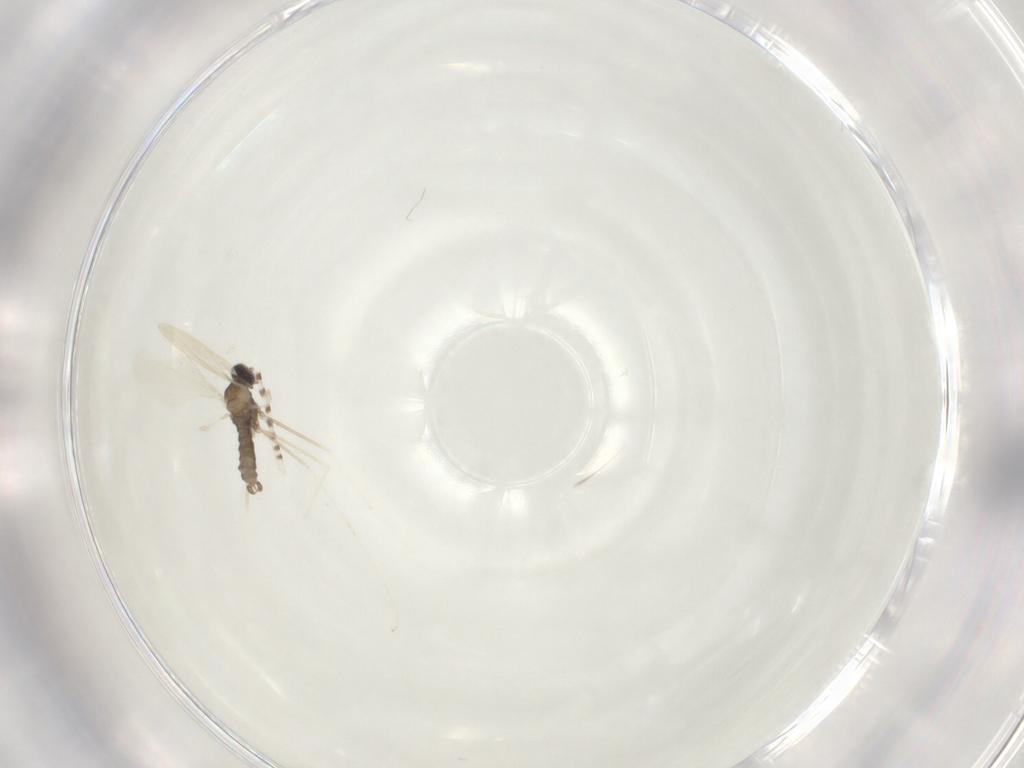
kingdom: Animalia
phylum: Arthropoda
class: Insecta
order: Diptera
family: Cecidomyiidae
